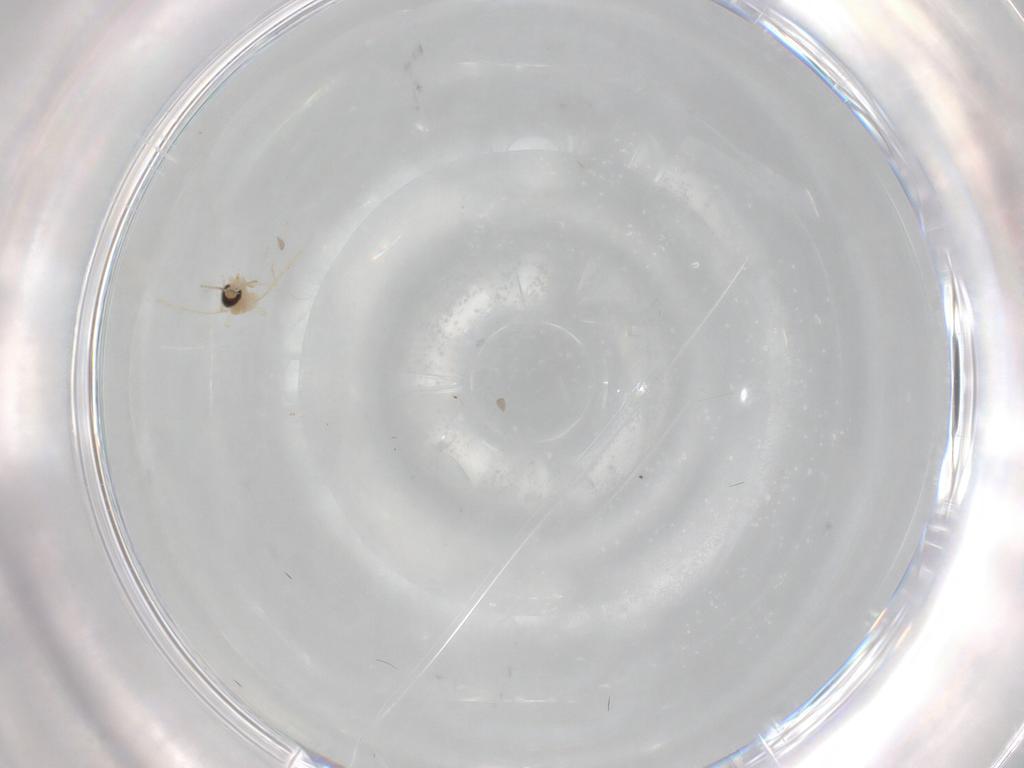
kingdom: Animalia
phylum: Arthropoda
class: Insecta
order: Diptera
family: Cecidomyiidae
